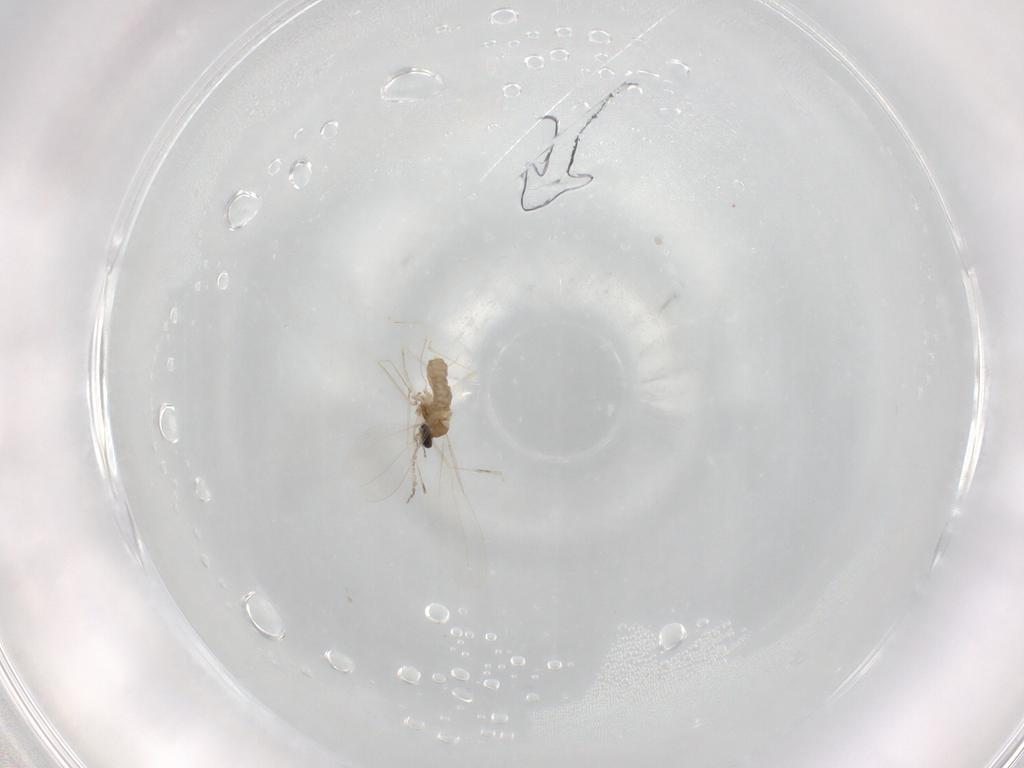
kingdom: Animalia
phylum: Arthropoda
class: Insecta
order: Diptera
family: Cecidomyiidae
